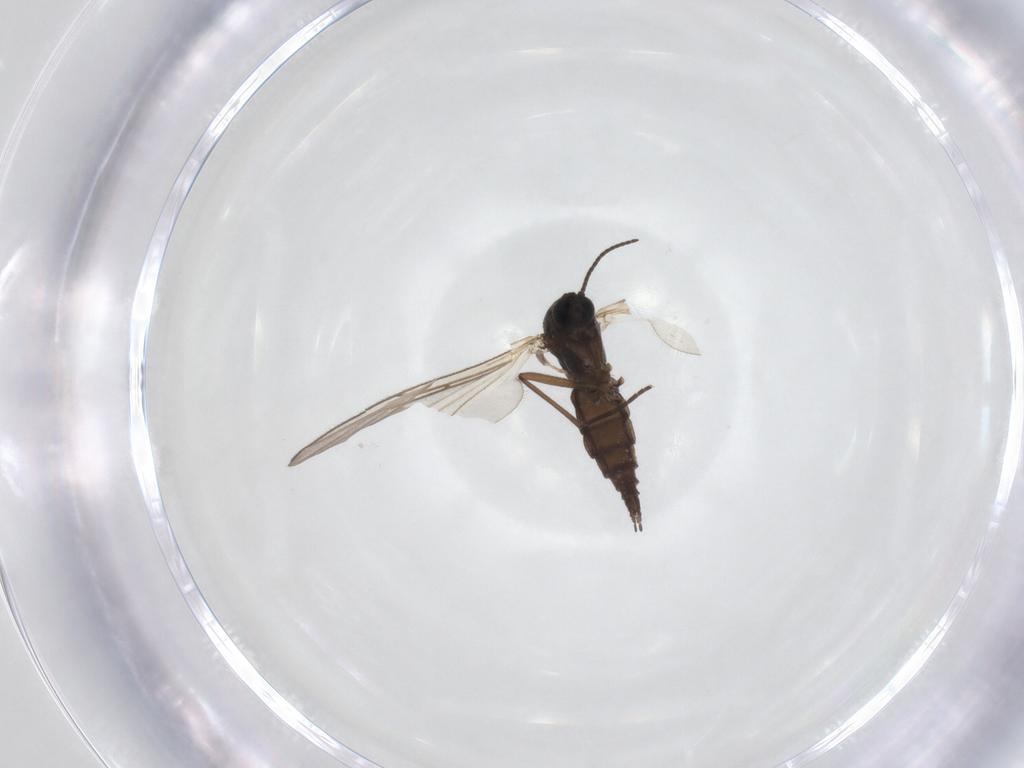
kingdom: Animalia
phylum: Arthropoda
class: Insecta
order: Diptera
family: Sciaridae
